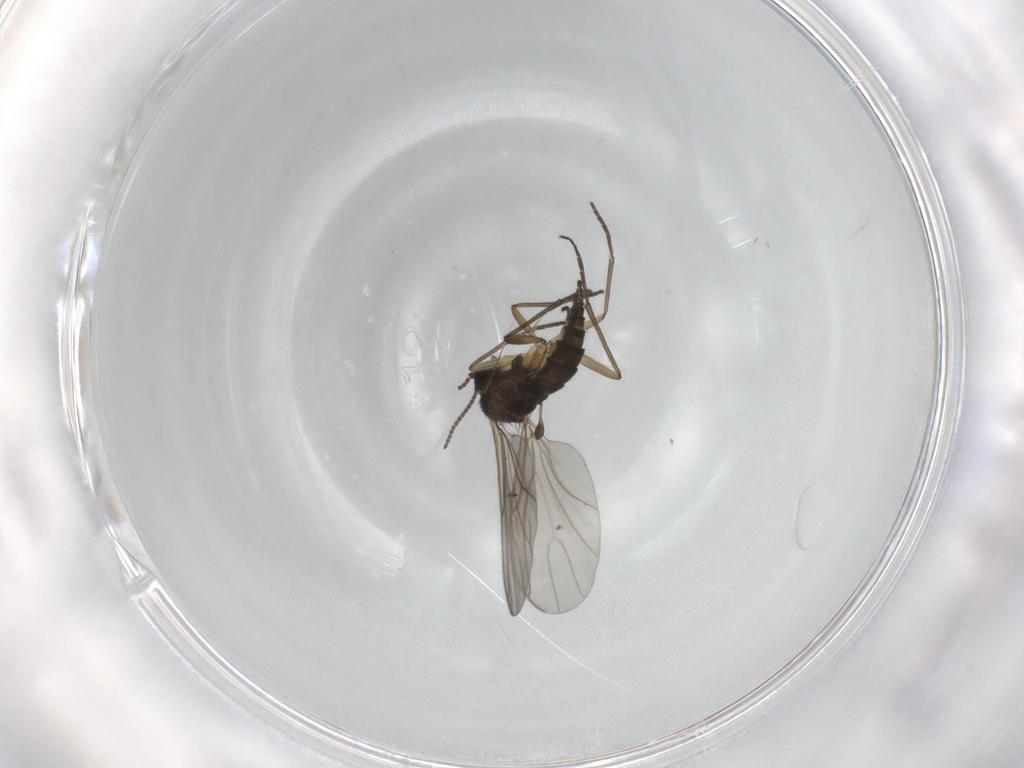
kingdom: Animalia
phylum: Arthropoda
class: Insecta
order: Diptera
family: Sciaridae
